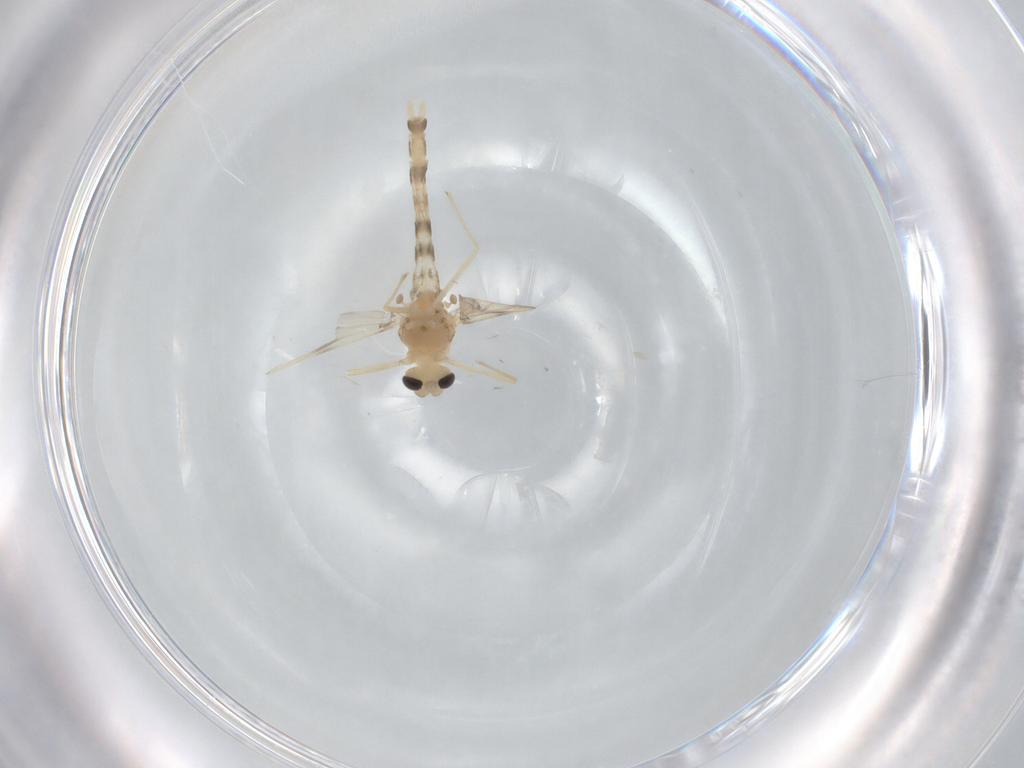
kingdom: Animalia
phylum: Arthropoda
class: Insecta
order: Diptera
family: Chironomidae
